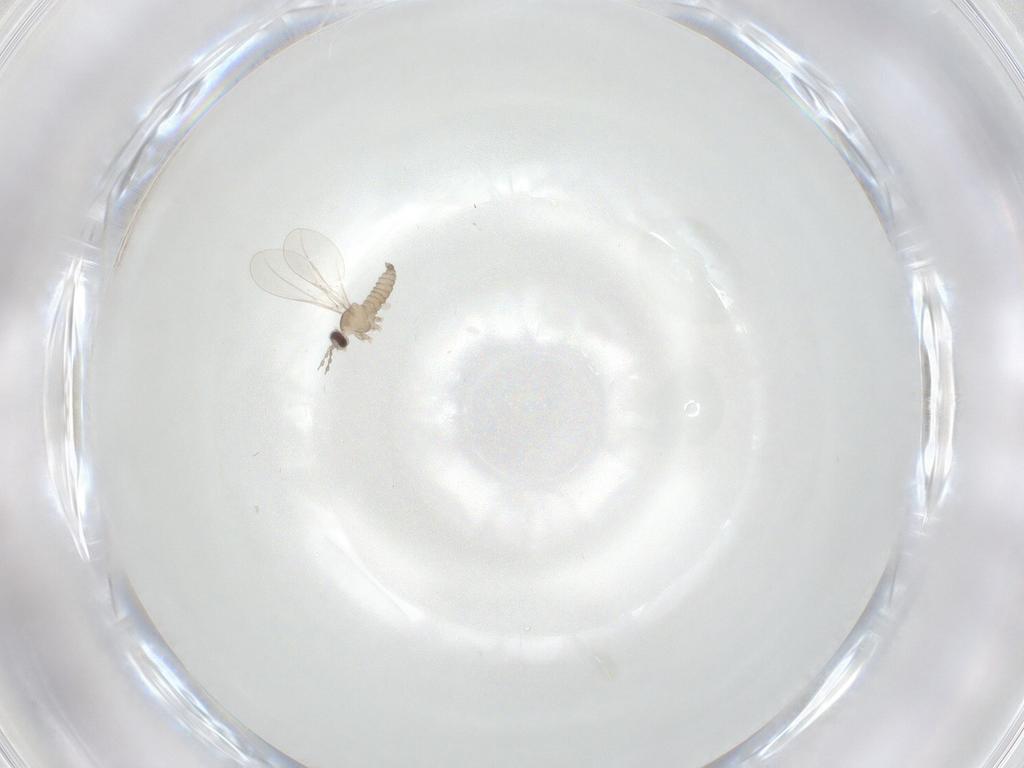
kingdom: Animalia
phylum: Arthropoda
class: Insecta
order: Diptera
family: Cecidomyiidae
